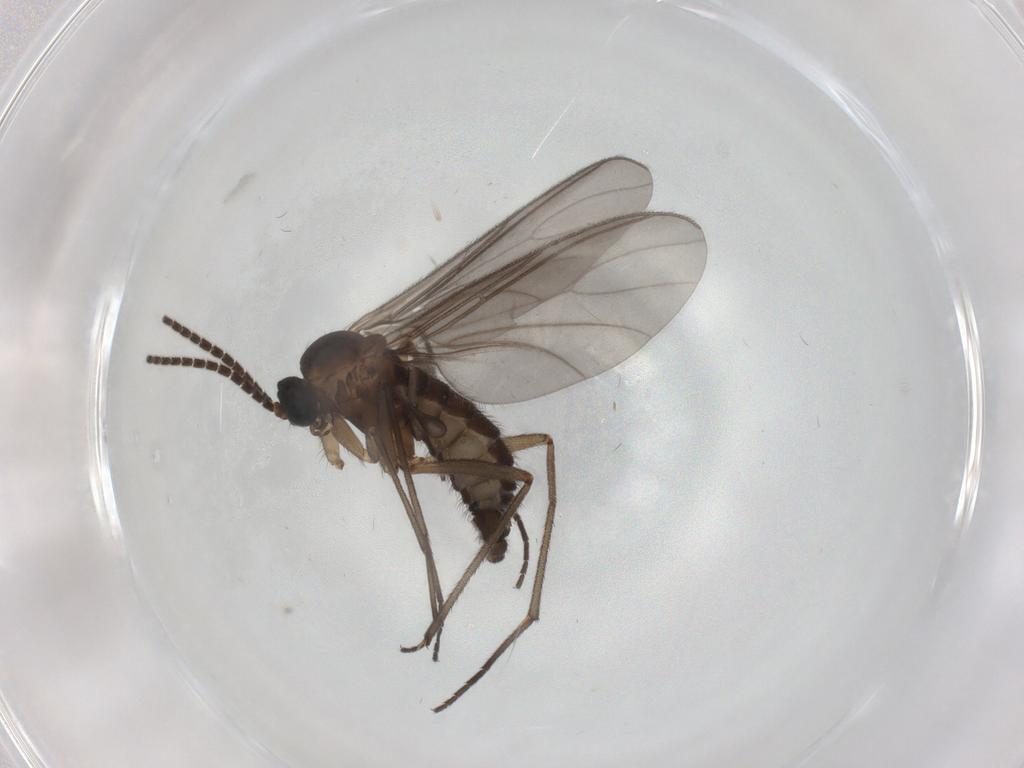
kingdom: Animalia
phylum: Arthropoda
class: Insecta
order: Diptera
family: Sciaridae
